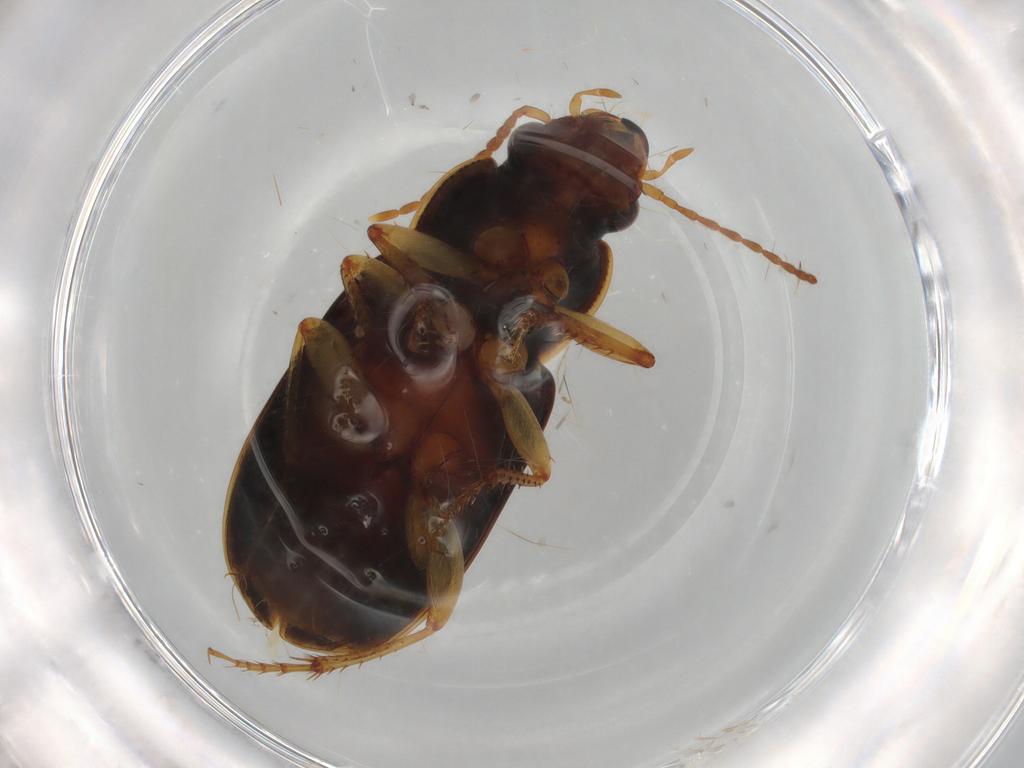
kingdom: Animalia
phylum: Arthropoda
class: Insecta
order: Coleoptera
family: Carabidae
